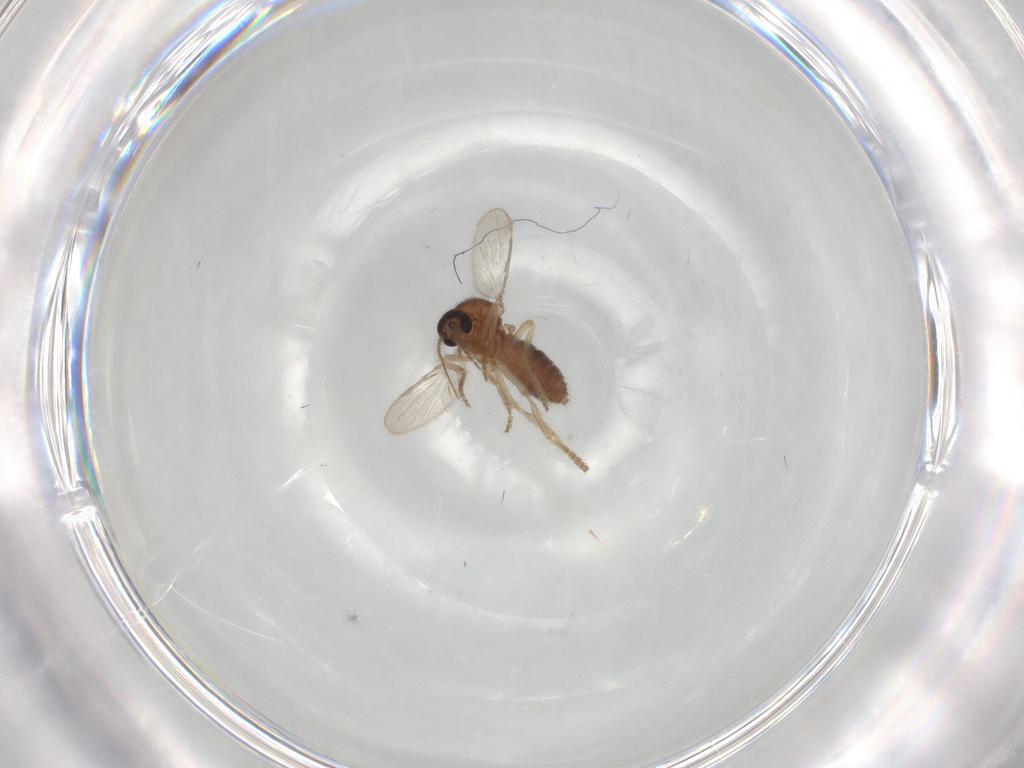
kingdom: Animalia
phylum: Arthropoda
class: Insecta
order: Diptera
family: Ceratopogonidae
